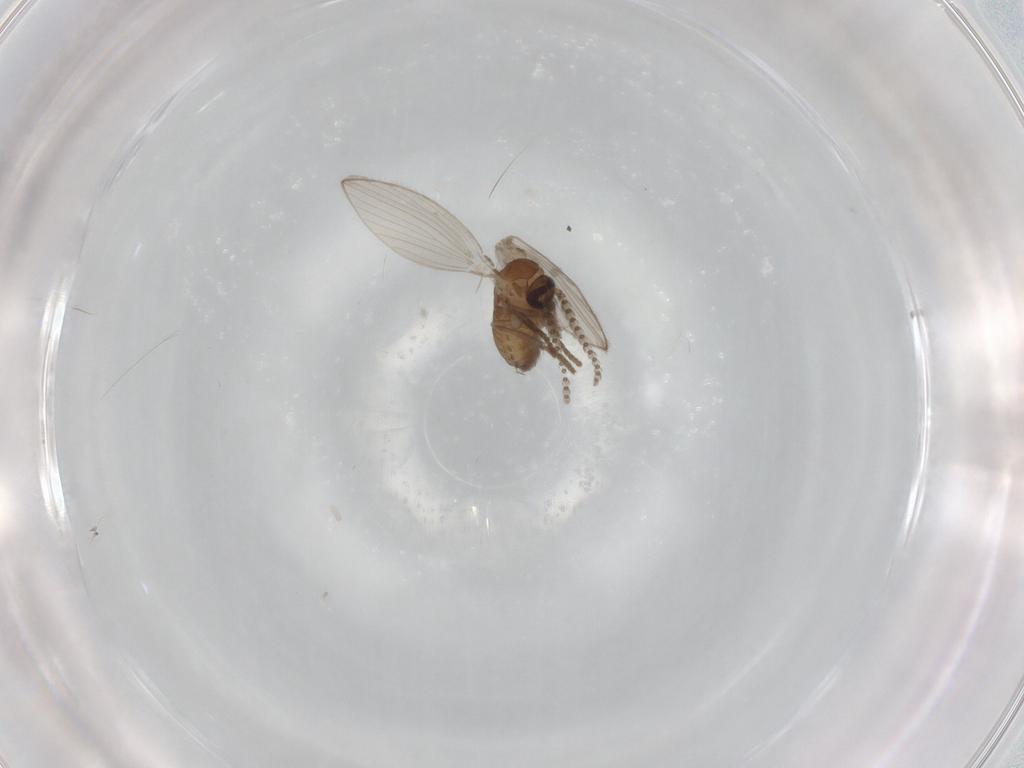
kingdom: Animalia
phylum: Arthropoda
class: Insecta
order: Diptera
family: Psychodidae
